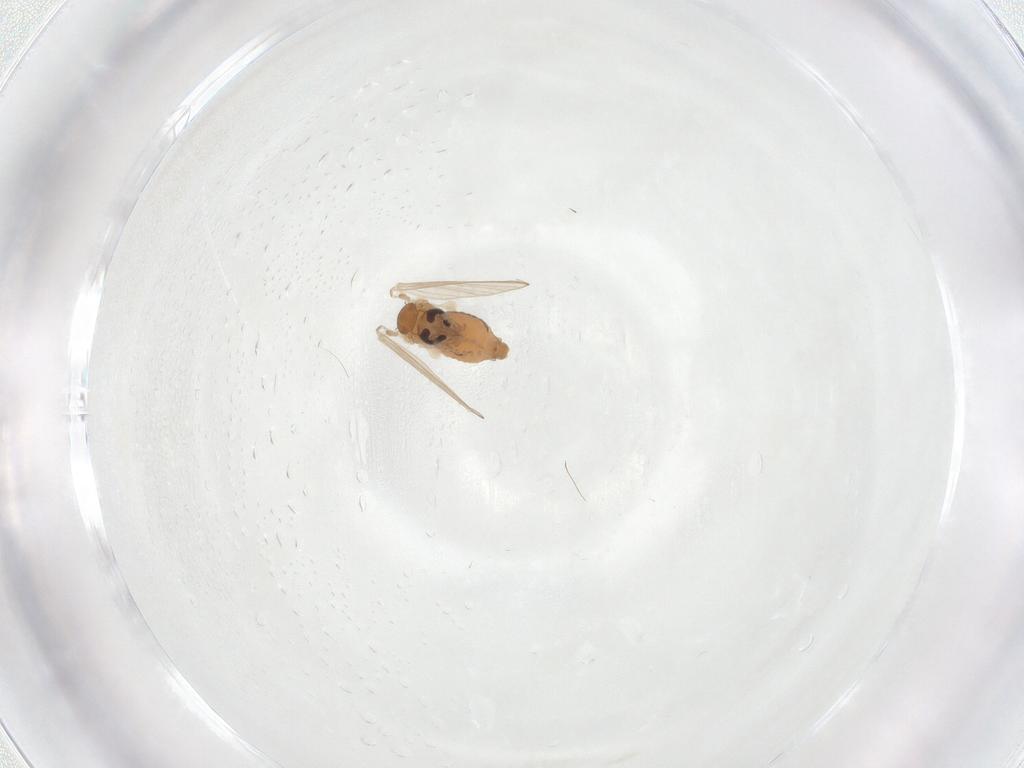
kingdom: Animalia
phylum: Arthropoda
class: Insecta
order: Diptera
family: Psychodidae
